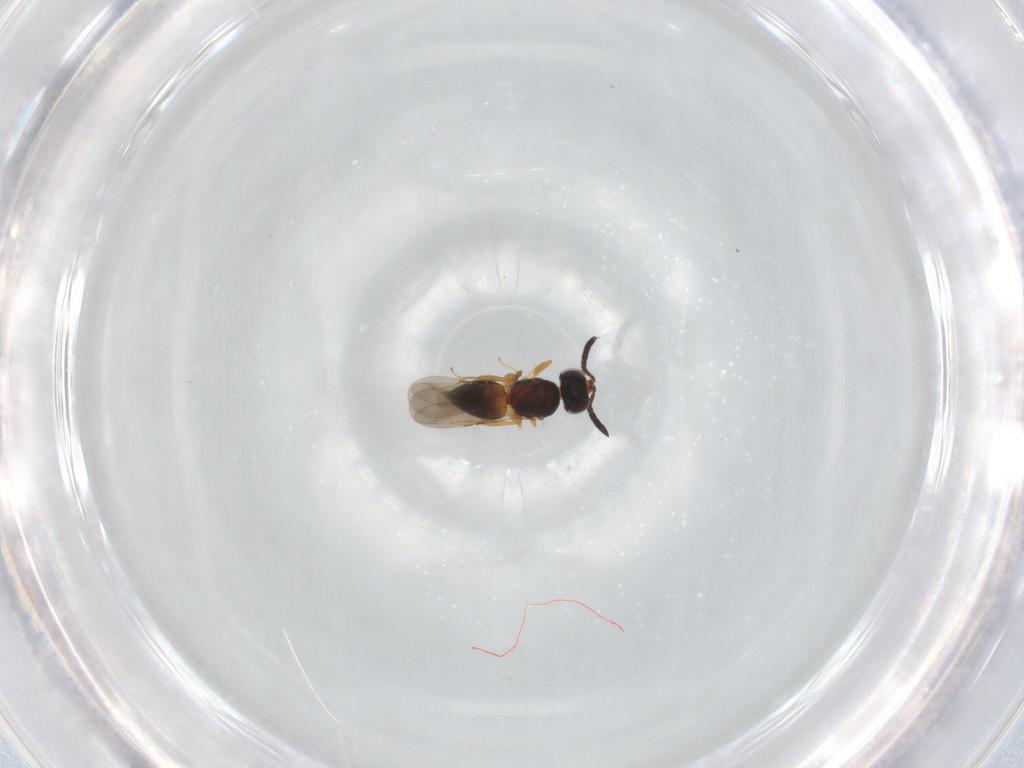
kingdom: Animalia
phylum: Arthropoda
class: Insecta
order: Hymenoptera
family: Ceraphronidae
